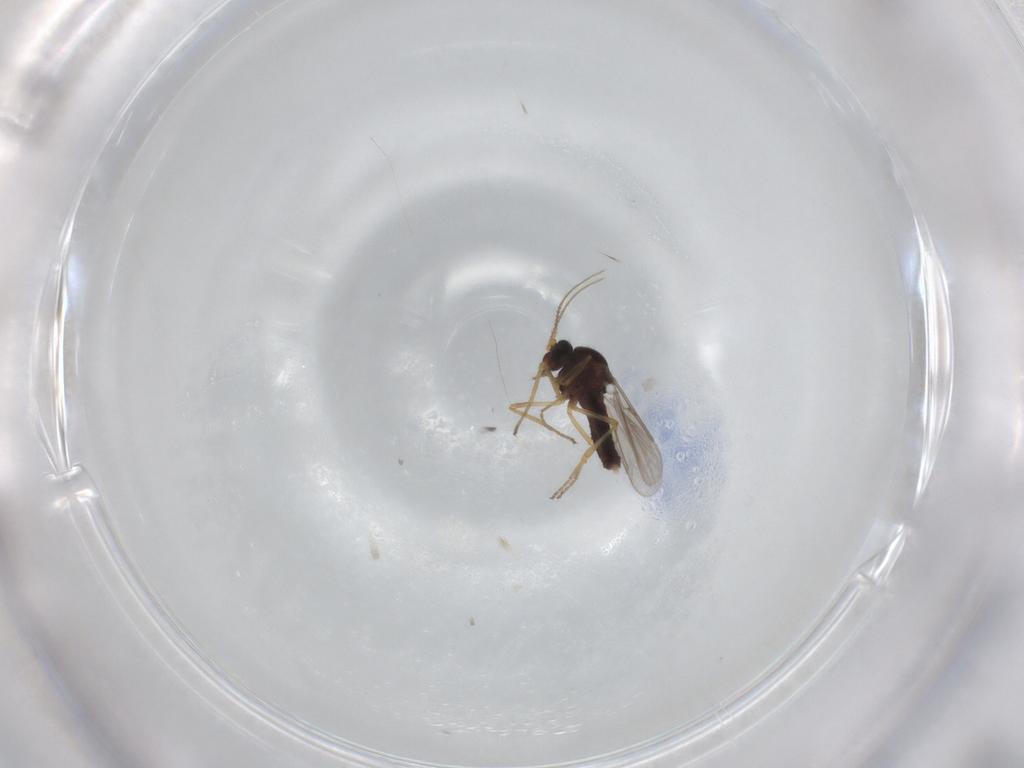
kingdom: Animalia
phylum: Arthropoda
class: Insecta
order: Diptera
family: Ceratopogonidae
